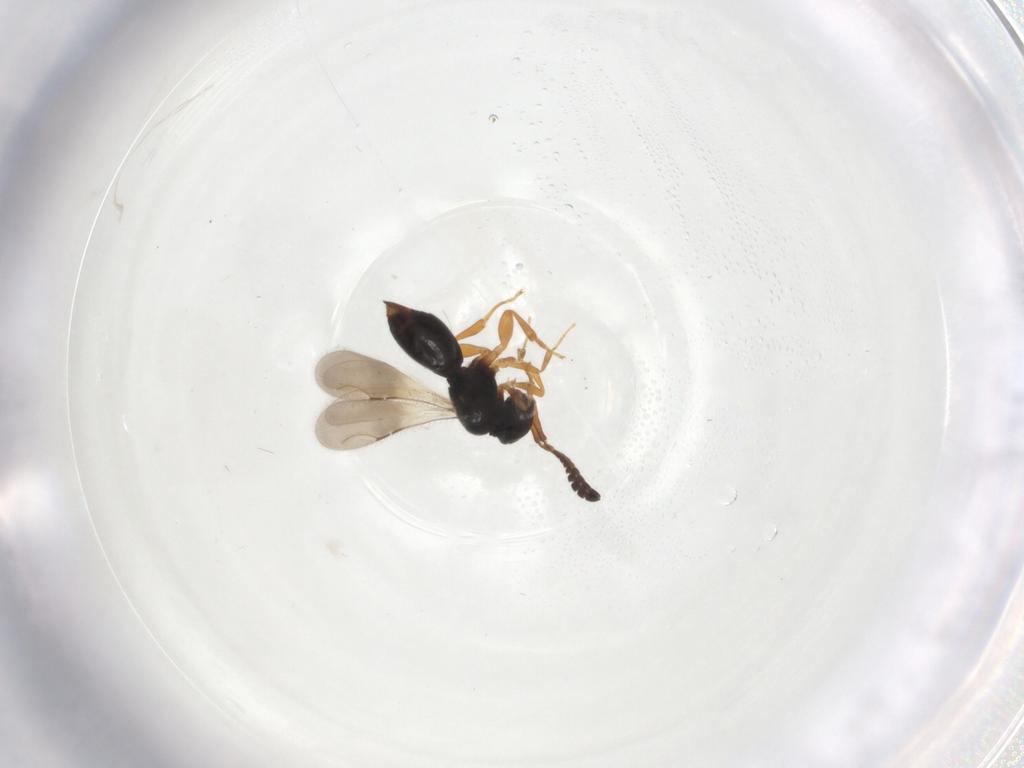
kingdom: Animalia
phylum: Arthropoda
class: Insecta
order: Hymenoptera
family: Ceraphronidae
